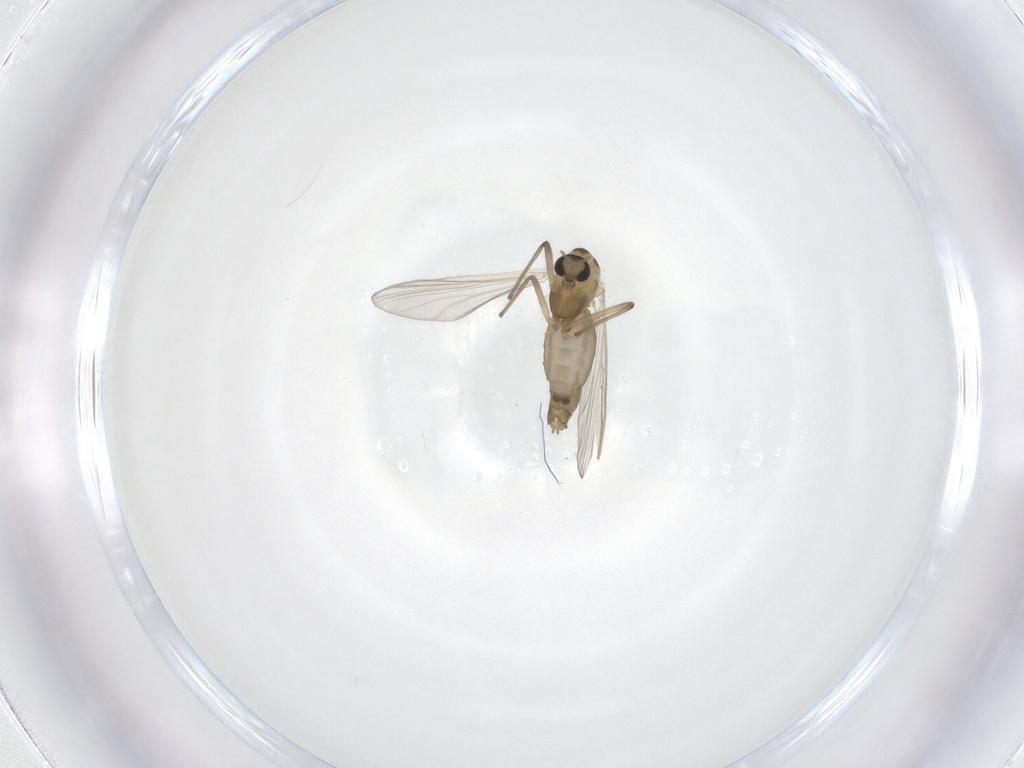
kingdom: Animalia
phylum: Arthropoda
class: Insecta
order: Diptera
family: Chironomidae
